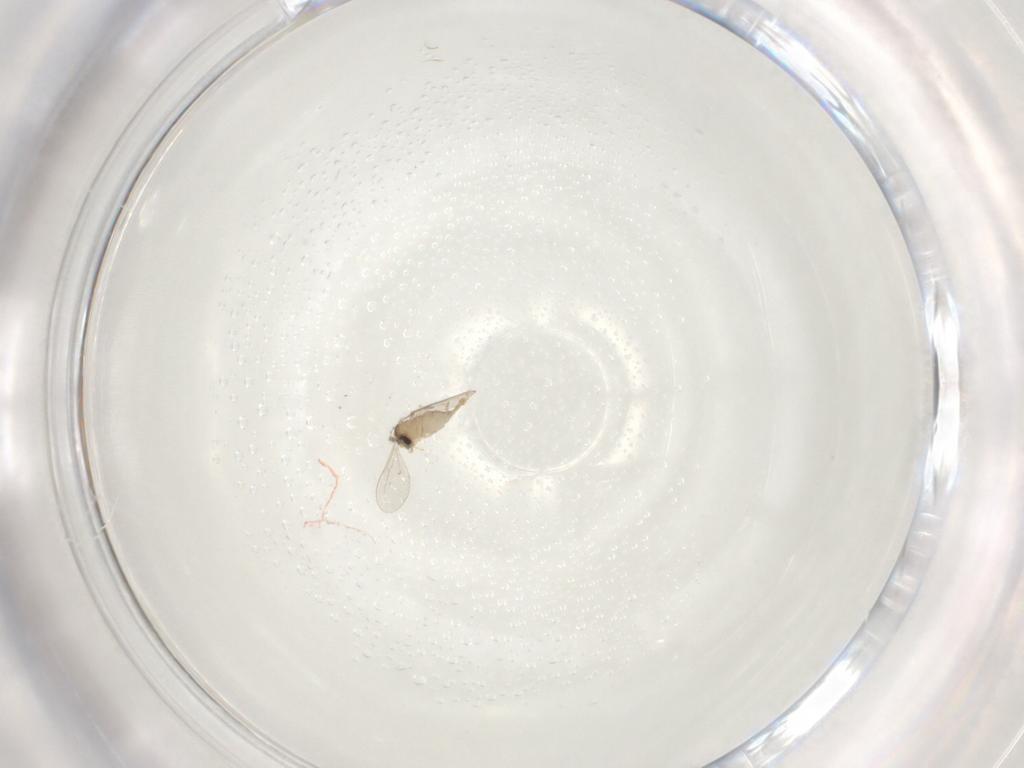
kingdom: Animalia
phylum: Arthropoda
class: Insecta
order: Diptera
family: Cecidomyiidae
